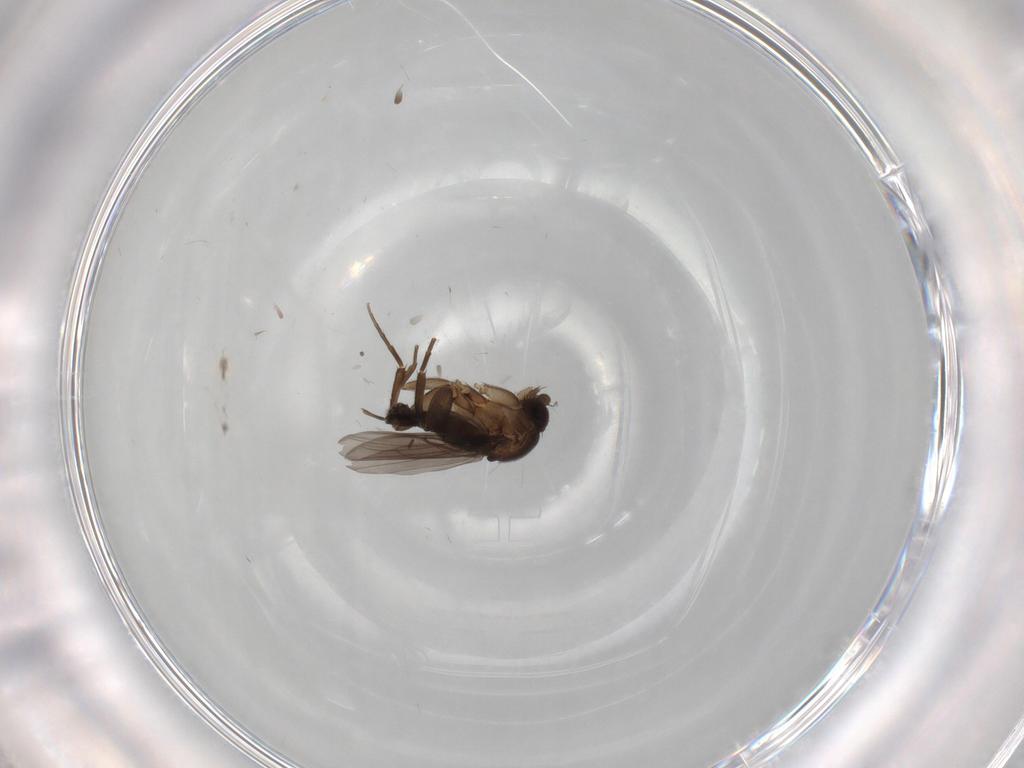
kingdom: Animalia
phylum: Arthropoda
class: Insecta
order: Diptera
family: Phoridae
